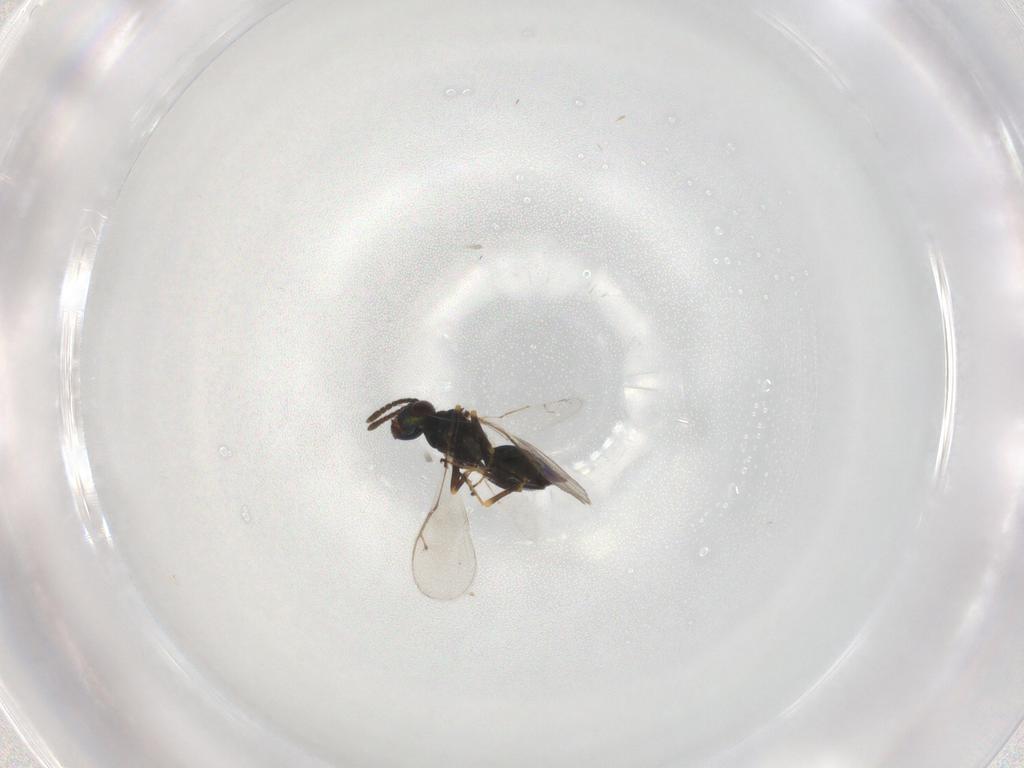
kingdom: Animalia
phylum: Arthropoda
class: Insecta
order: Hymenoptera
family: Pteromalidae
